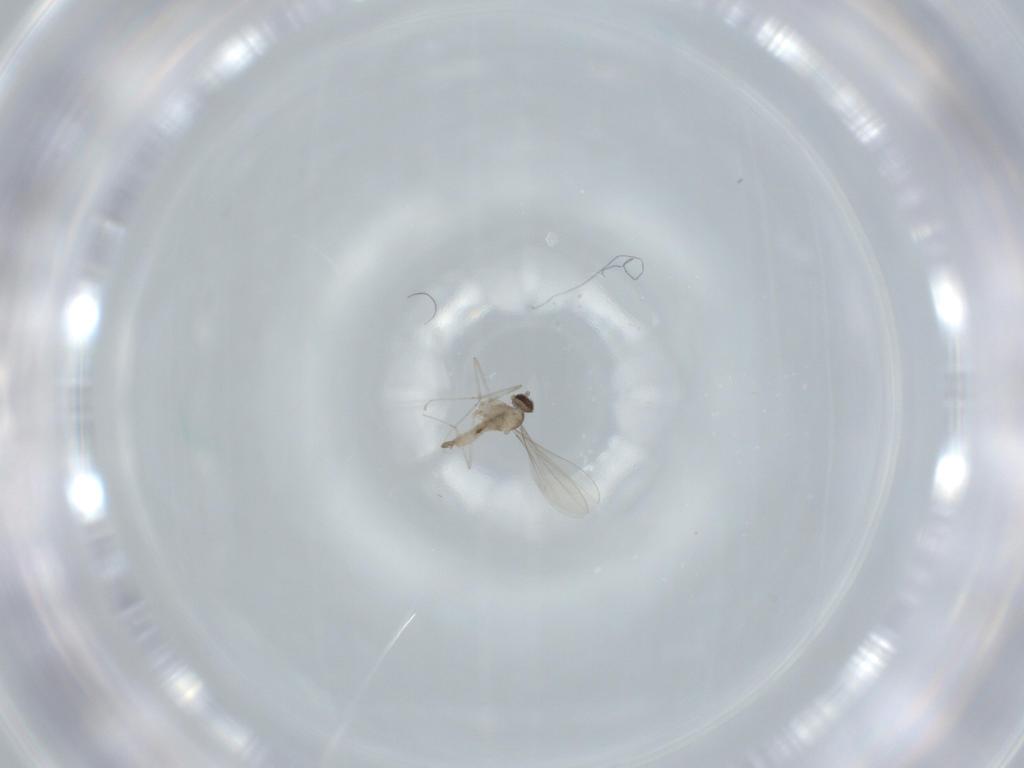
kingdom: Animalia
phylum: Arthropoda
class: Insecta
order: Diptera
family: Cecidomyiidae
